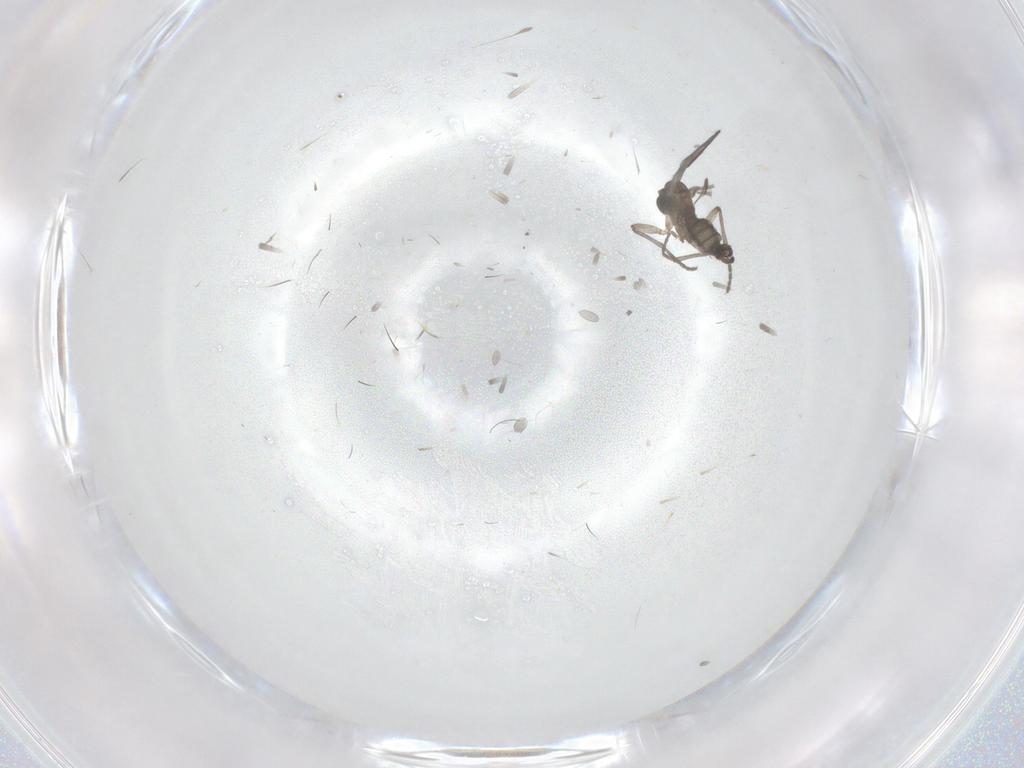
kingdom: Animalia
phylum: Arthropoda
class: Insecta
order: Diptera
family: Sciaridae
